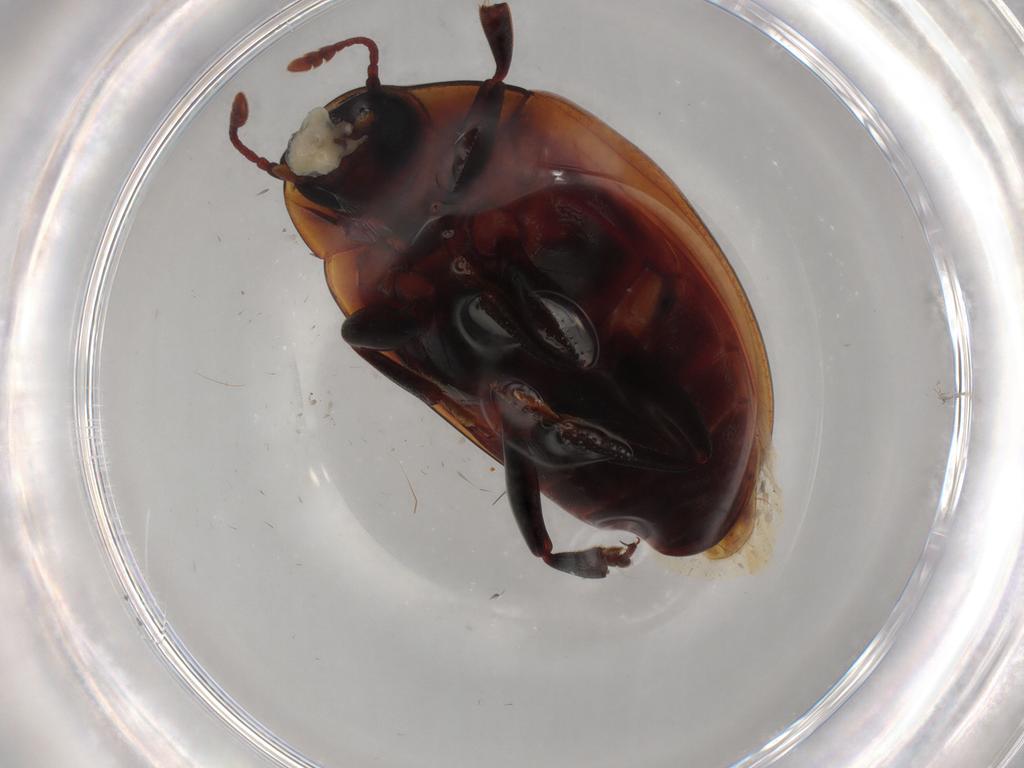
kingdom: Animalia
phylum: Arthropoda
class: Insecta
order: Coleoptera
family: Zopheridae
